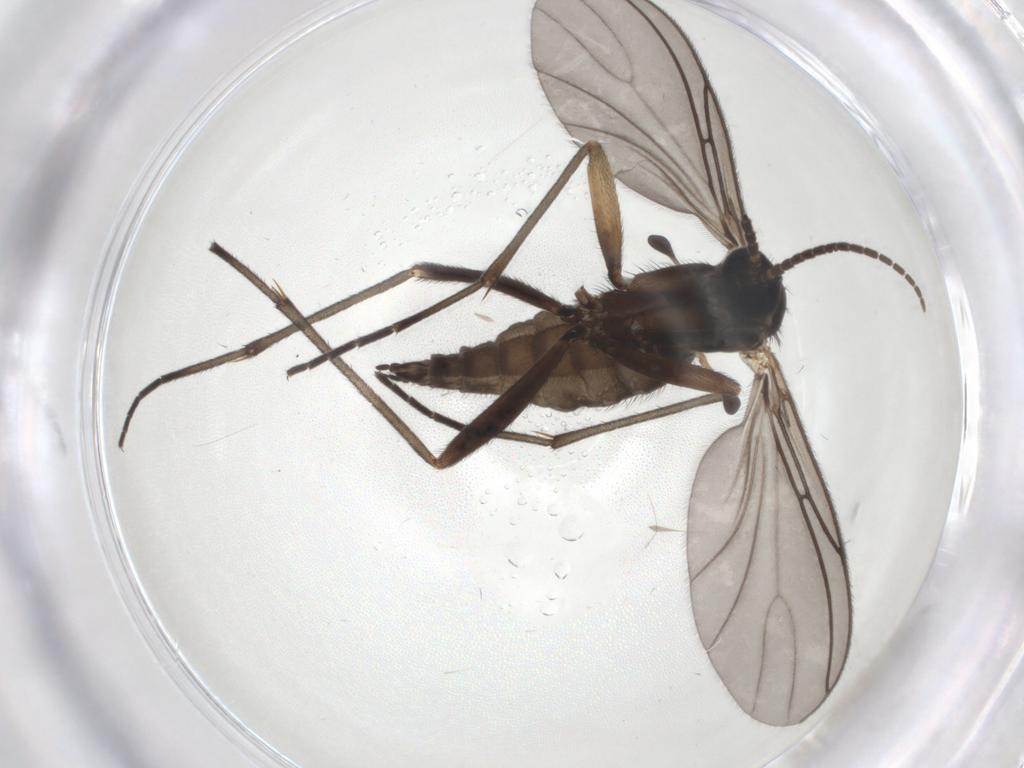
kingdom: Animalia
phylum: Arthropoda
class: Insecta
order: Diptera
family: Sciaridae
